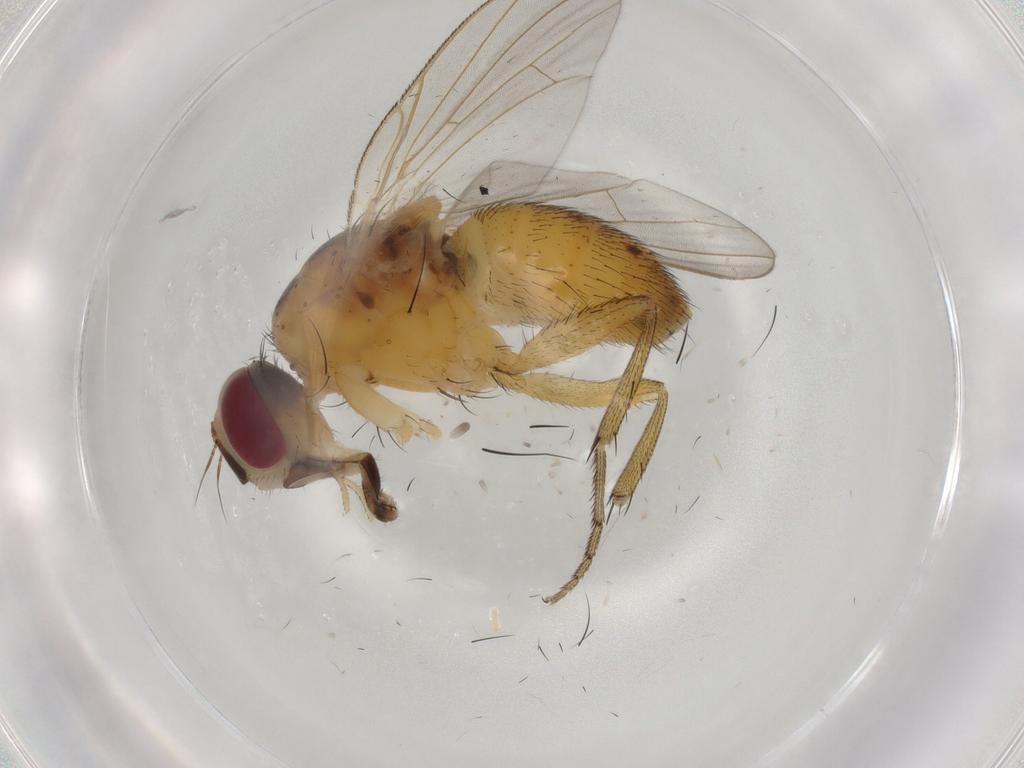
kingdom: Animalia
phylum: Arthropoda
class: Insecta
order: Diptera
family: Muscidae
